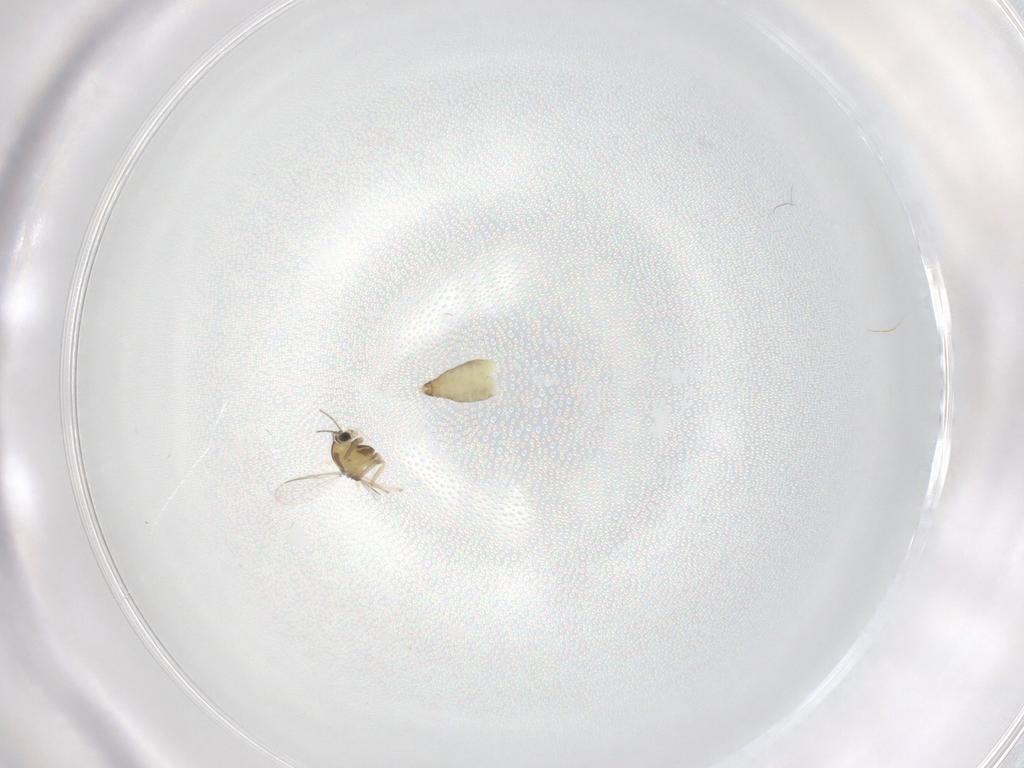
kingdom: Animalia
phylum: Arthropoda
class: Insecta
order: Diptera
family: Chironomidae
